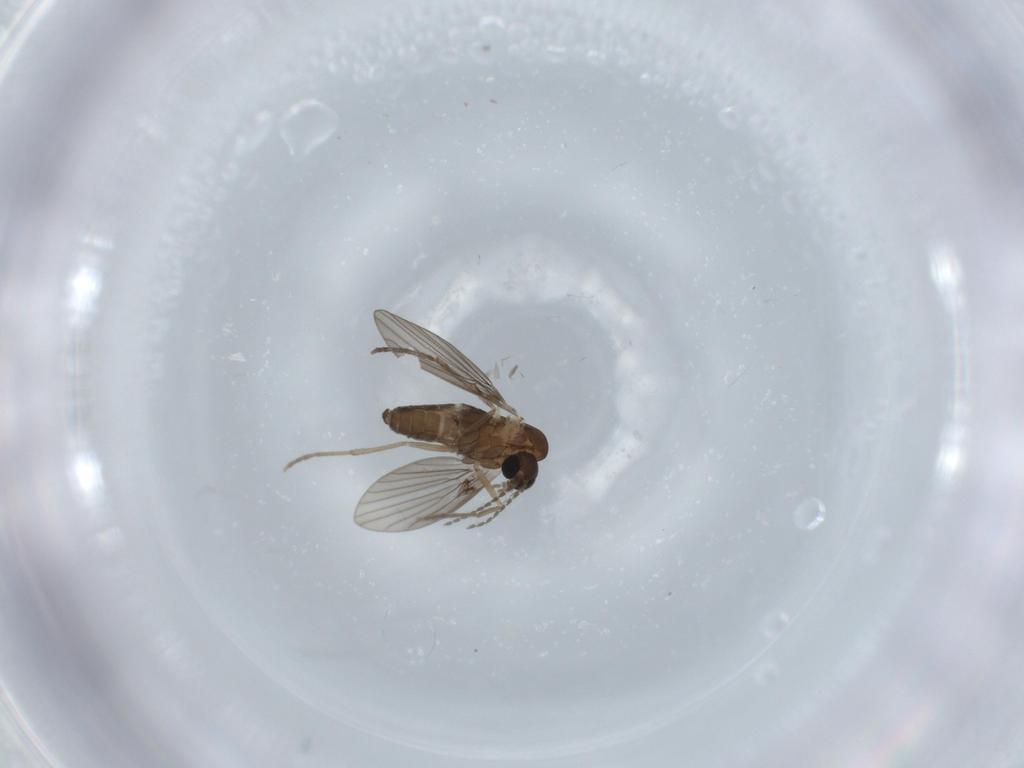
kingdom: Animalia
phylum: Arthropoda
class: Insecta
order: Diptera
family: Psychodidae
